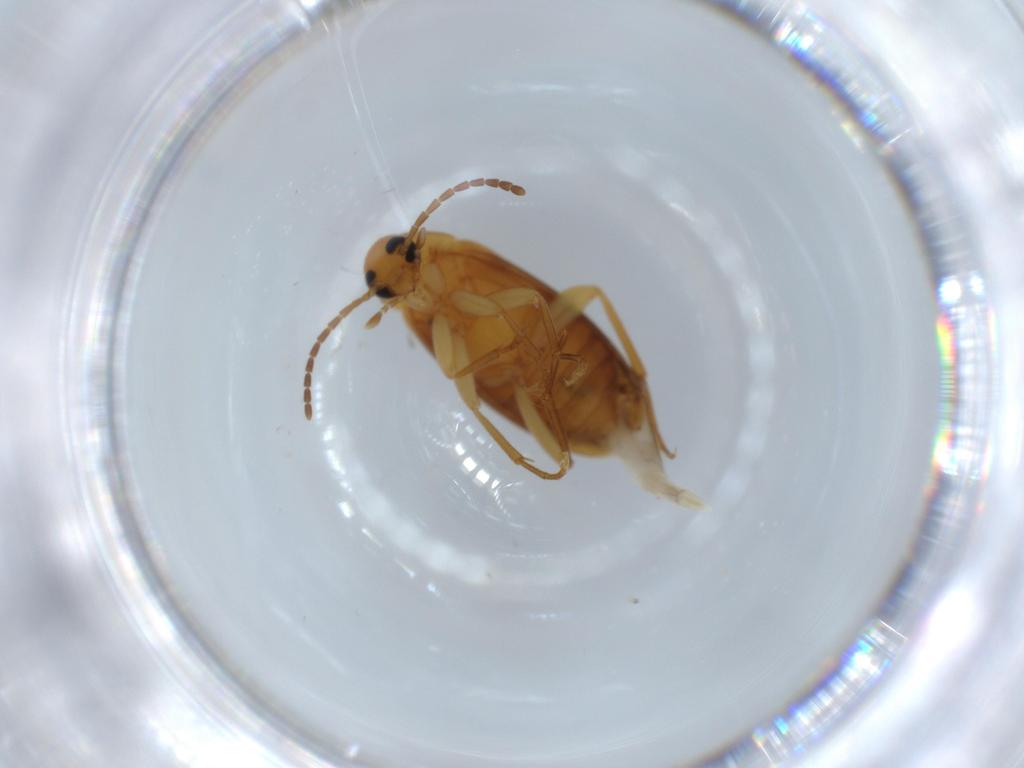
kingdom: Animalia
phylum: Arthropoda
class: Insecta
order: Coleoptera
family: Scraptiidae
